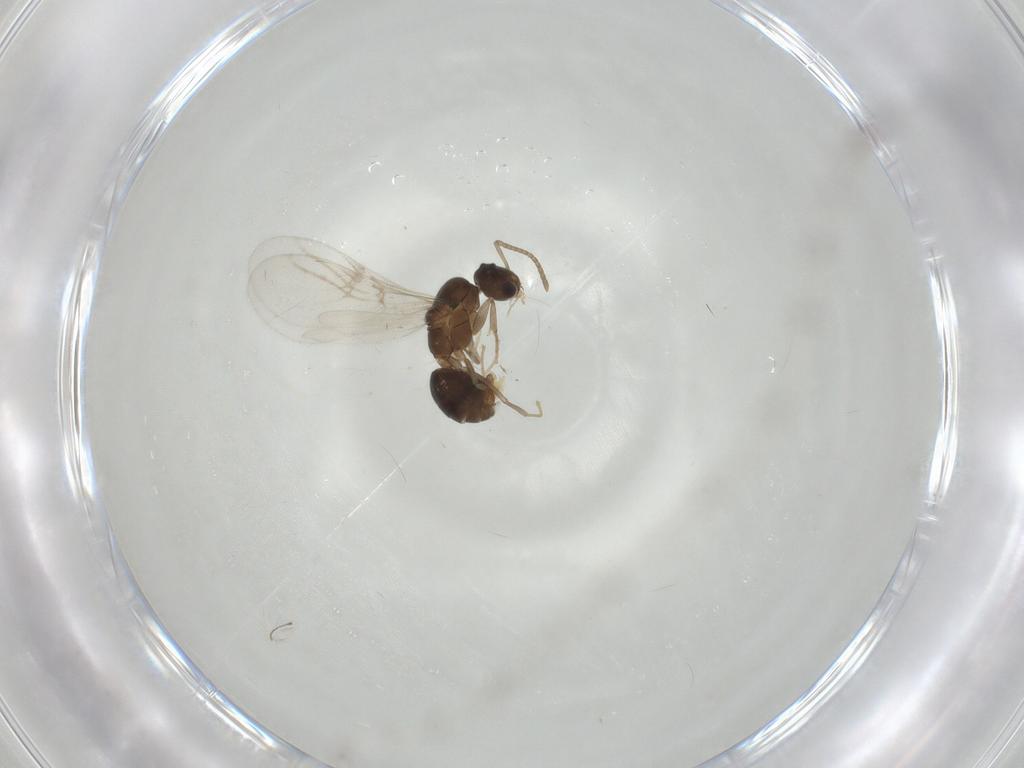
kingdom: Animalia
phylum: Arthropoda
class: Insecta
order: Hymenoptera
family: Formicidae
